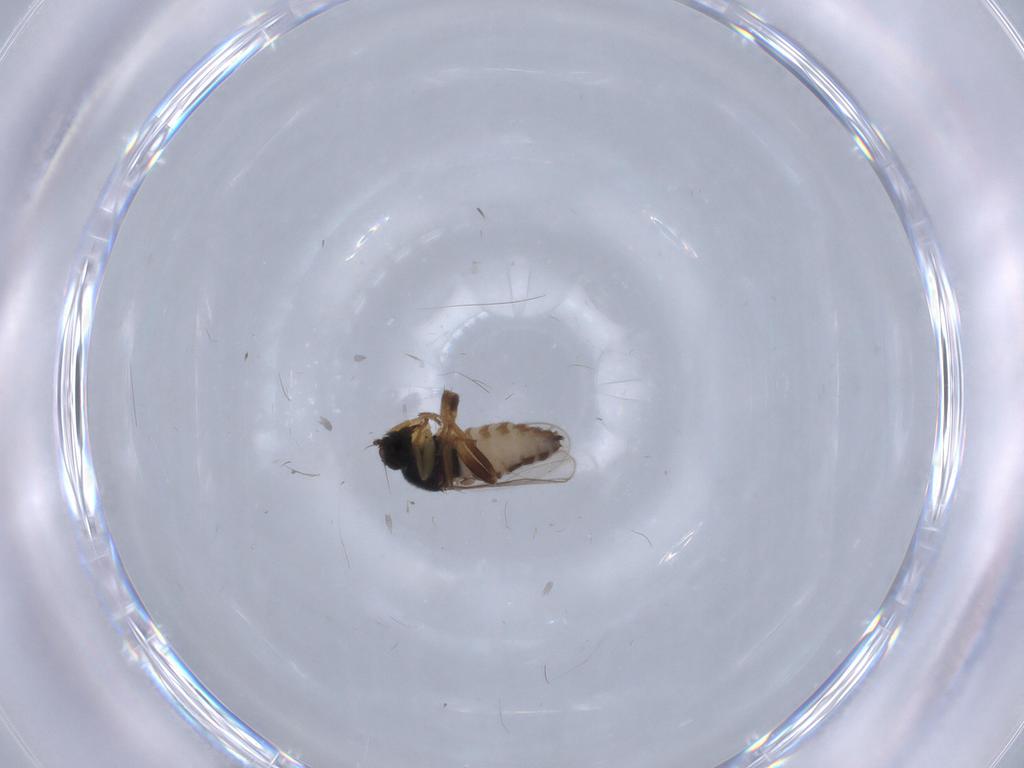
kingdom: Animalia
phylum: Arthropoda
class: Insecta
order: Diptera
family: Hybotidae
